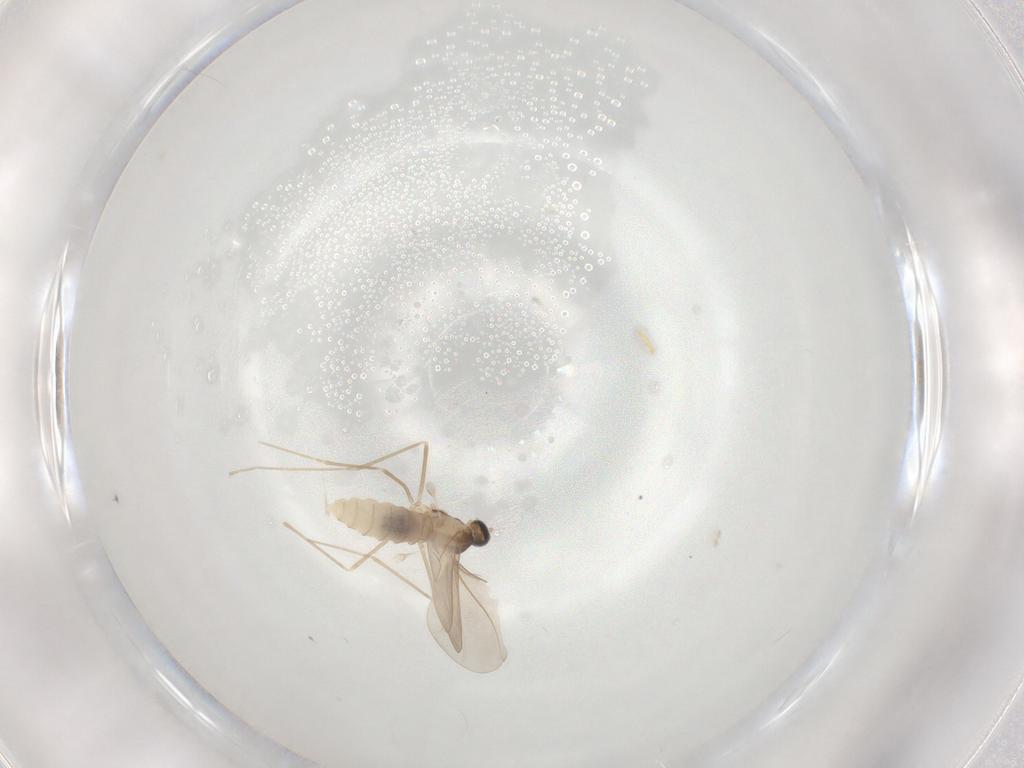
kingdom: Animalia
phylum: Arthropoda
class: Insecta
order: Diptera
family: Cecidomyiidae
